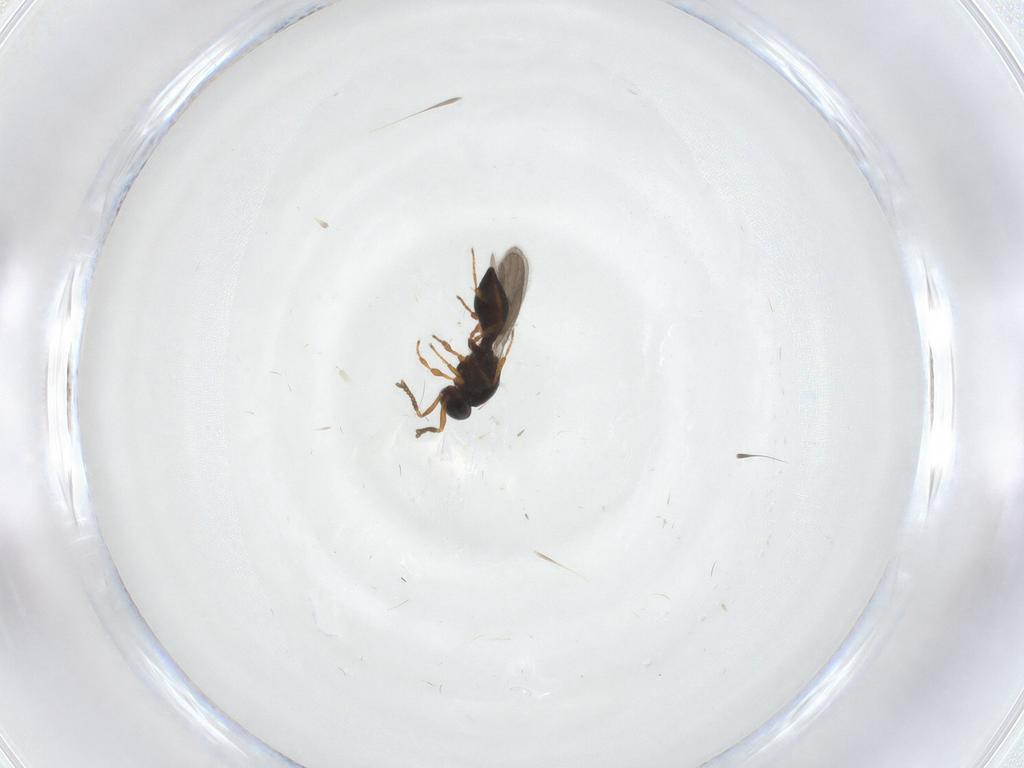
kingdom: Animalia
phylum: Arthropoda
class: Insecta
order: Hymenoptera
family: Platygastridae
